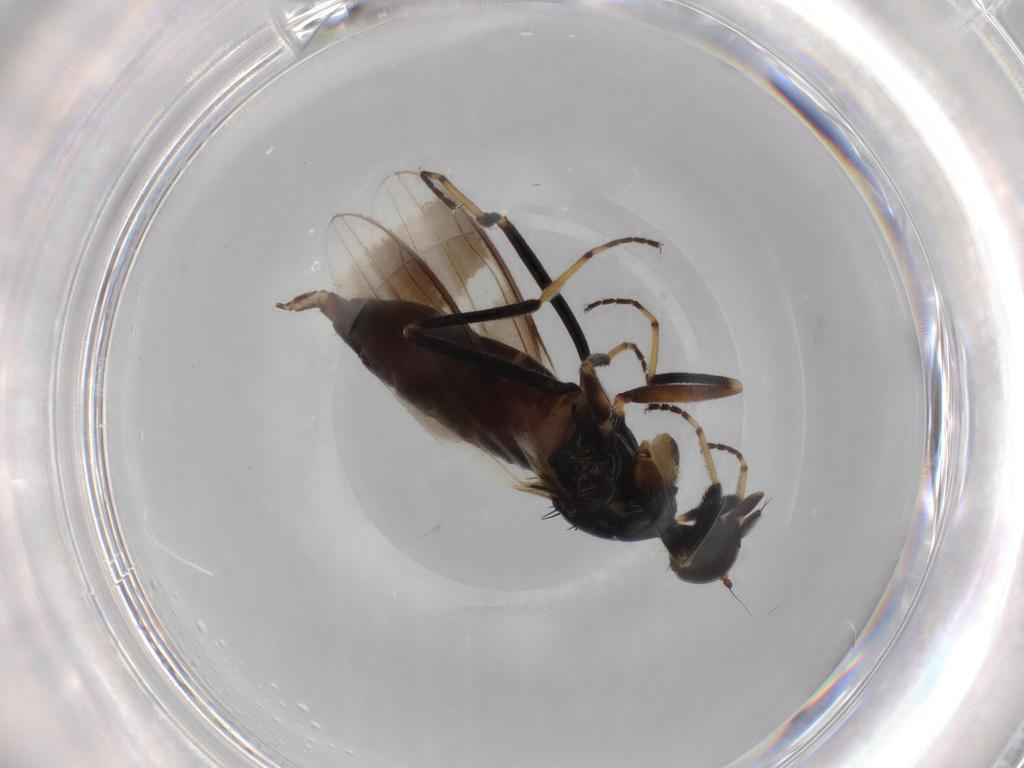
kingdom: Animalia
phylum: Arthropoda
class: Insecta
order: Diptera
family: Hybotidae
